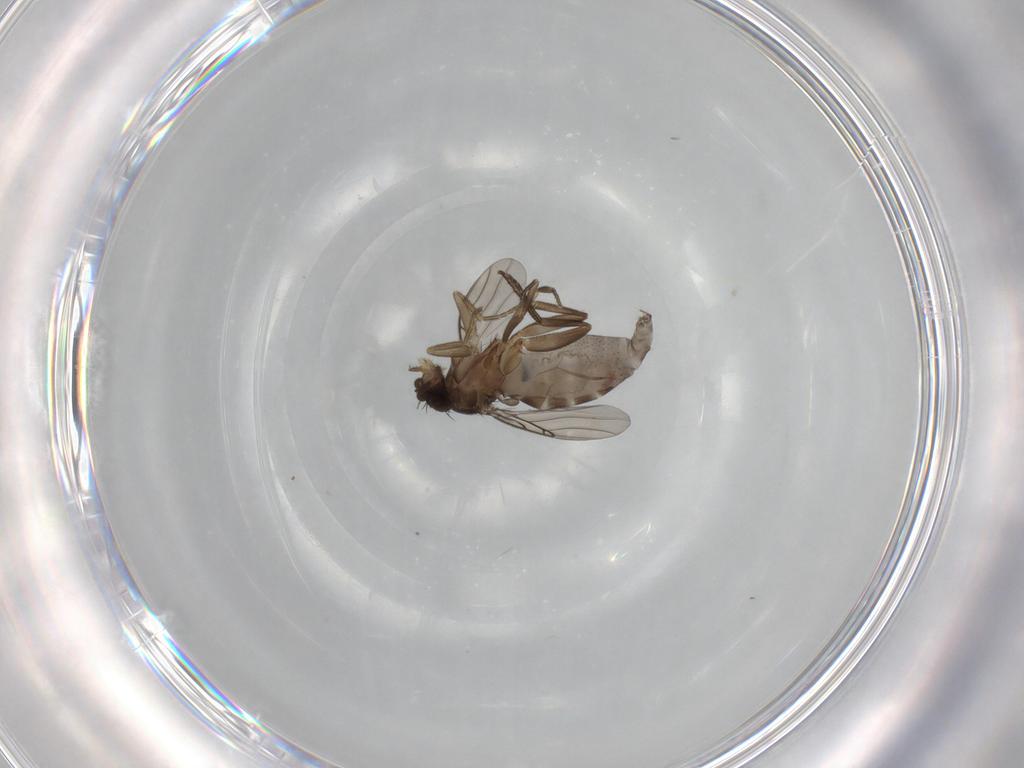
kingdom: Animalia
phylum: Arthropoda
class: Insecta
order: Diptera
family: Phoridae
